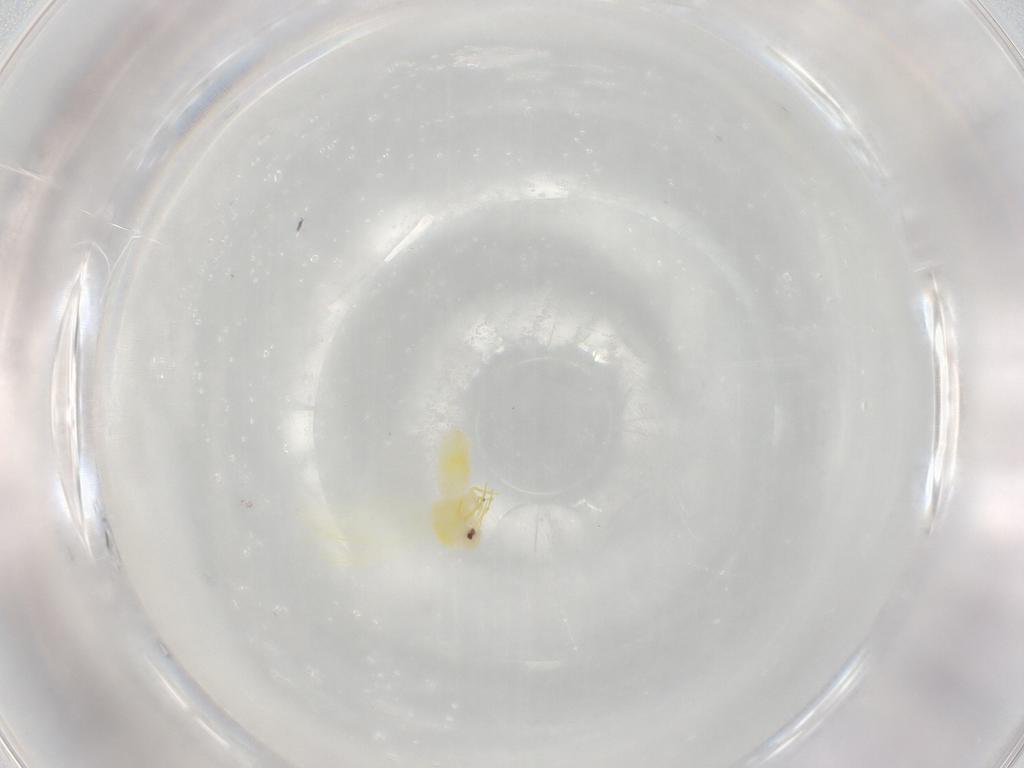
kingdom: Animalia
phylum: Arthropoda
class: Insecta
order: Hemiptera
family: Aleyrodidae
